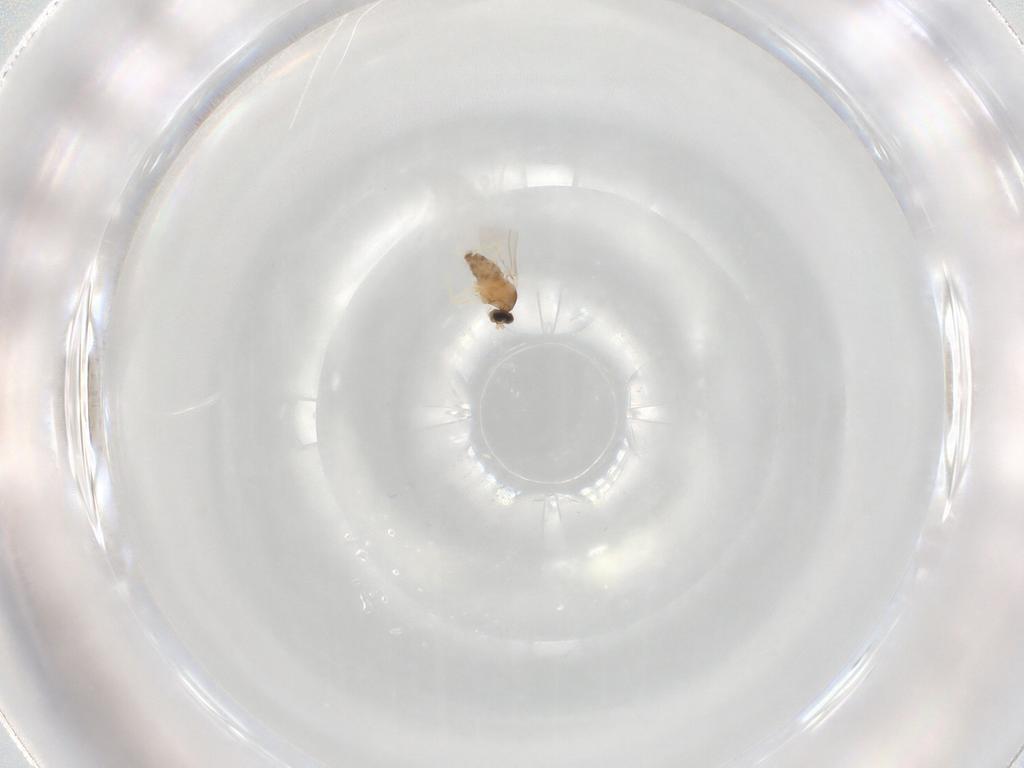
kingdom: Animalia
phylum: Arthropoda
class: Insecta
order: Diptera
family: Cecidomyiidae
